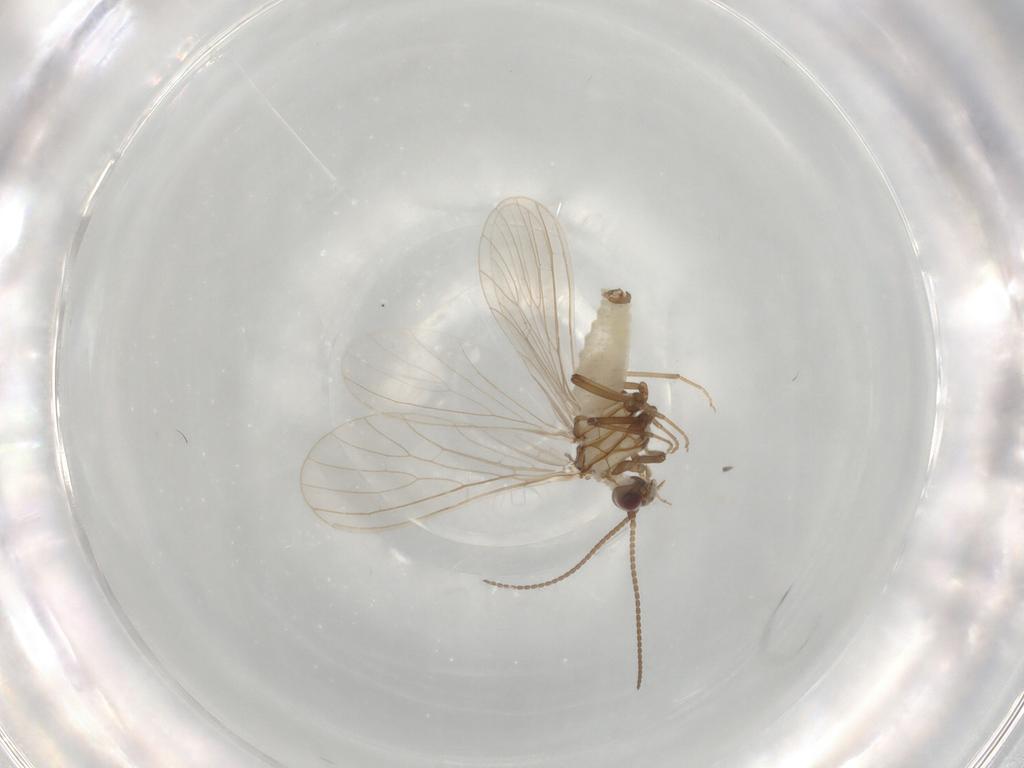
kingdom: Animalia
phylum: Arthropoda
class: Insecta
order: Neuroptera
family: Coniopterygidae
